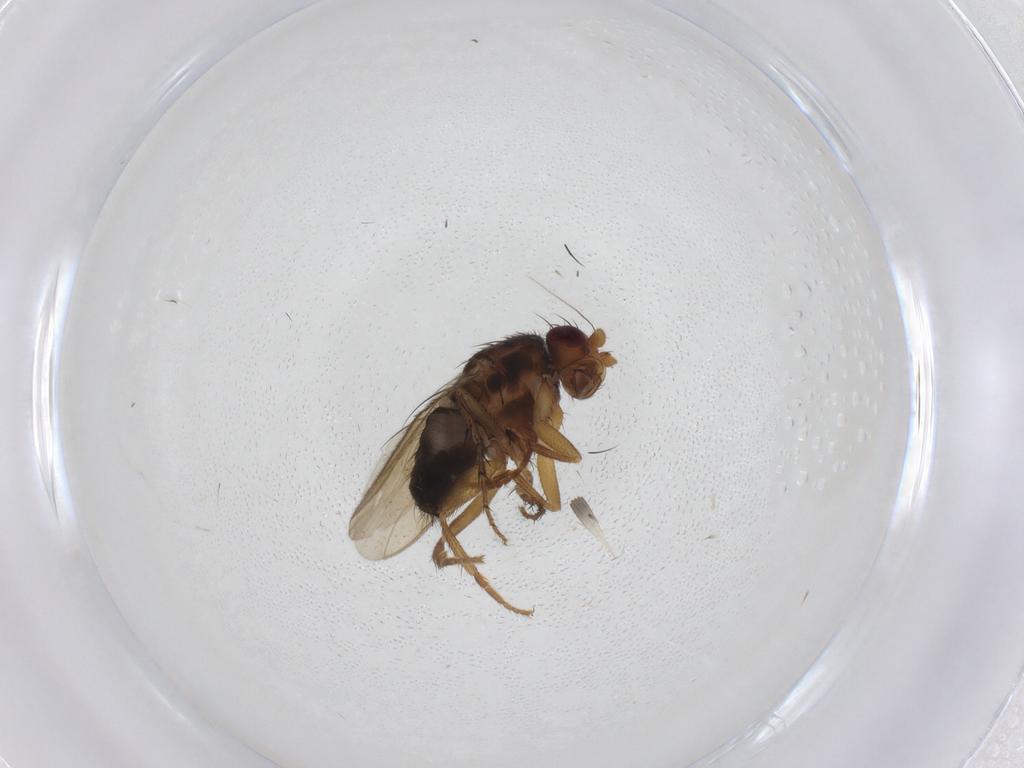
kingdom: Animalia
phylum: Arthropoda
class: Insecta
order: Diptera
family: Sphaeroceridae
